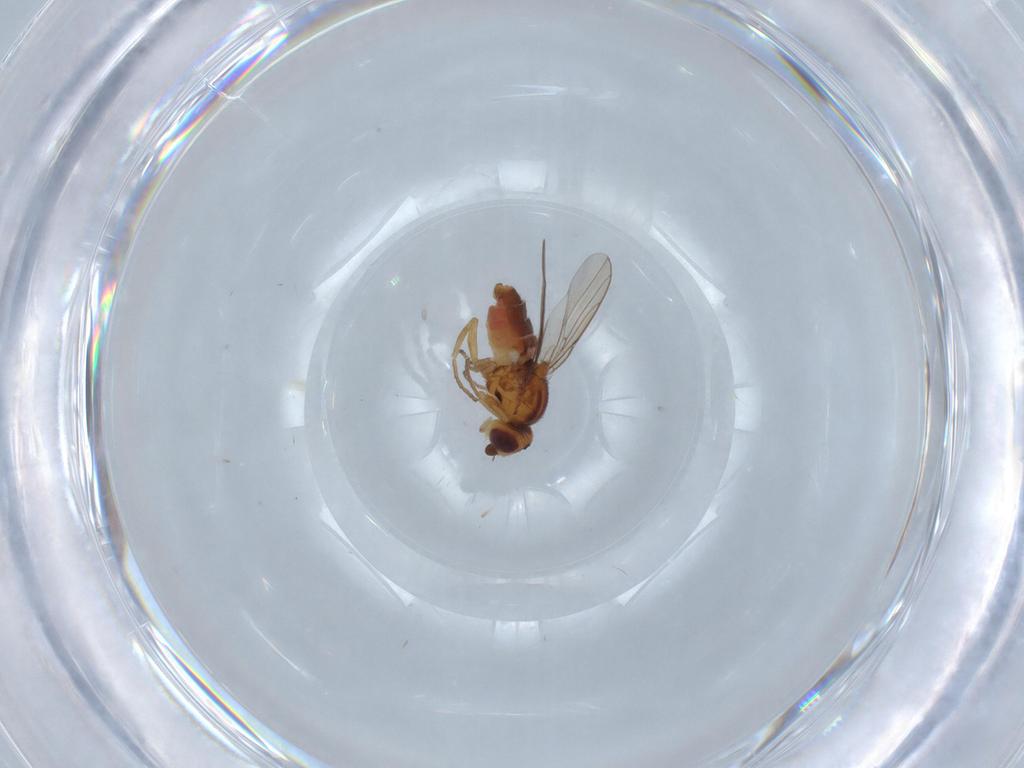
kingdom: Animalia
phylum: Arthropoda
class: Insecta
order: Diptera
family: Chloropidae
